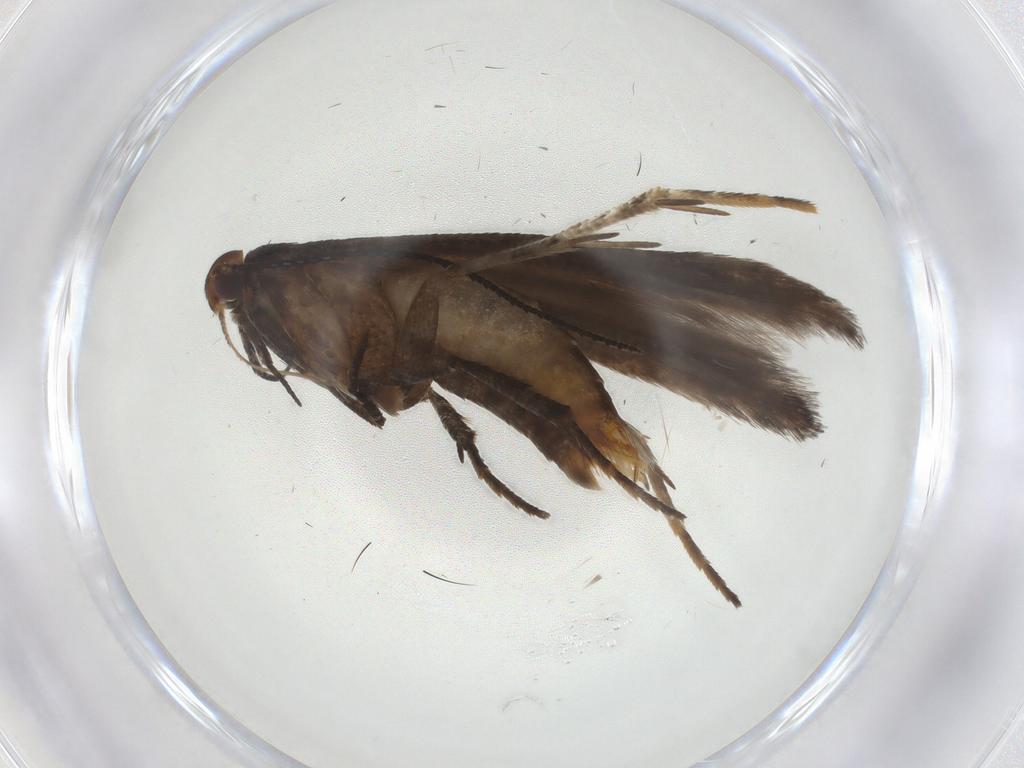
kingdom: Animalia
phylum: Arthropoda
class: Insecta
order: Lepidoptera
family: Gelechiidae
